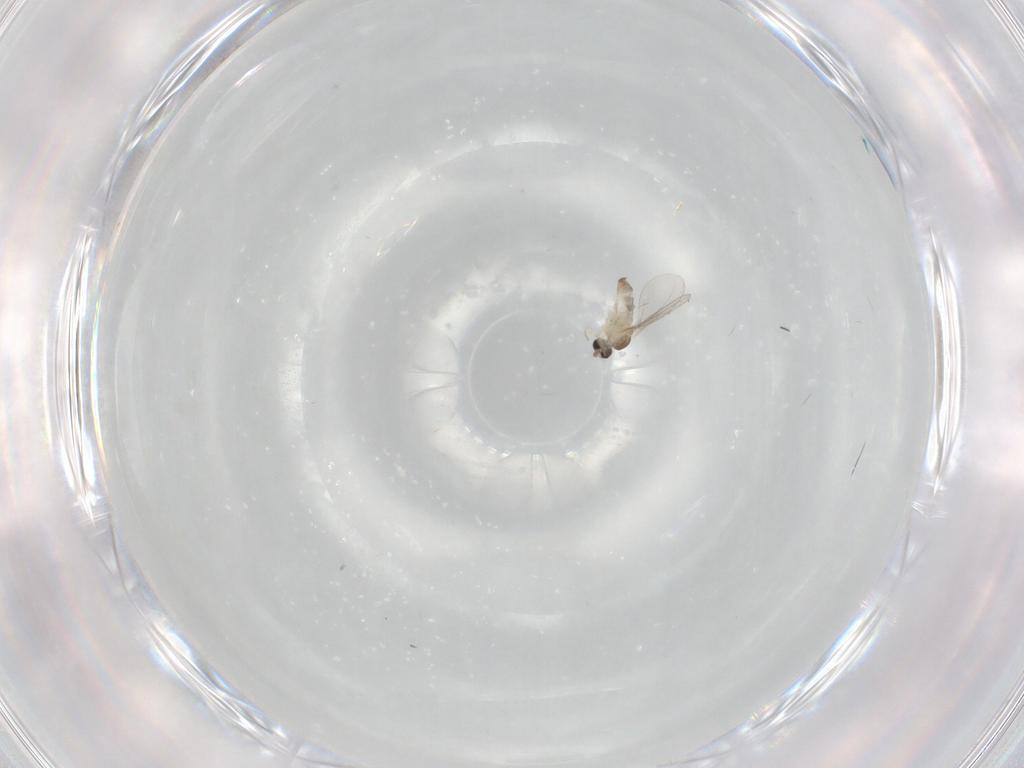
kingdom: Animalia
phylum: Arthropoda
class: Insecta
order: Diptera
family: Cecidomyiidae
